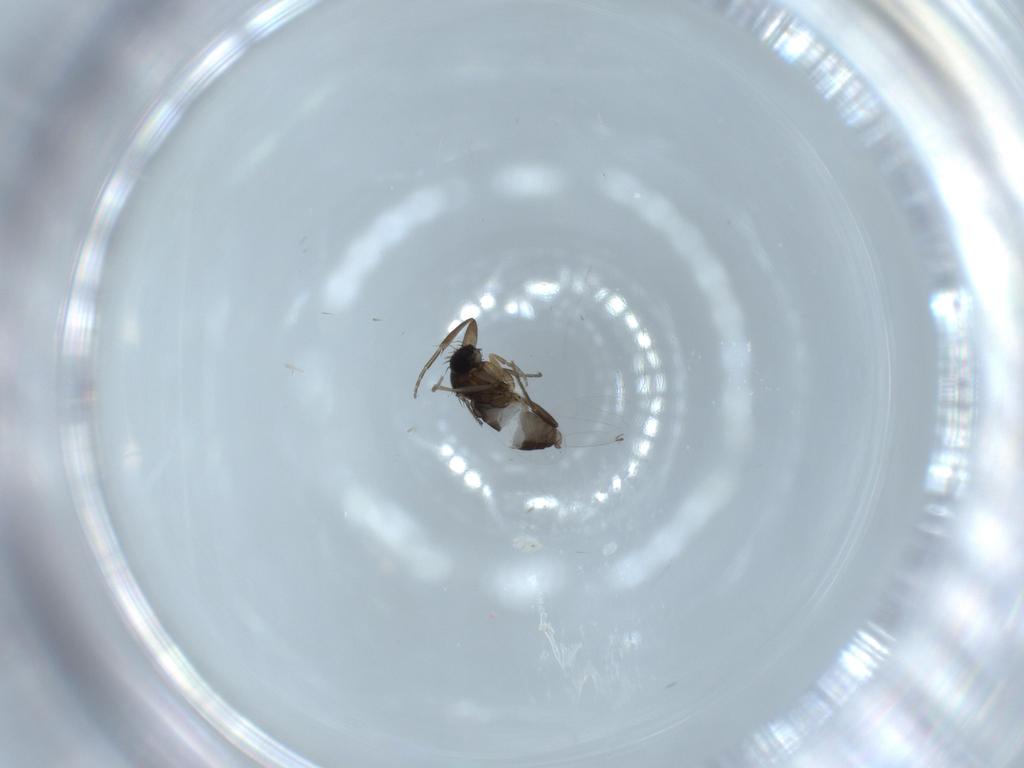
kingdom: Animalia
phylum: Arthropoda
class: Insecta
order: Diptera
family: Phoridae
